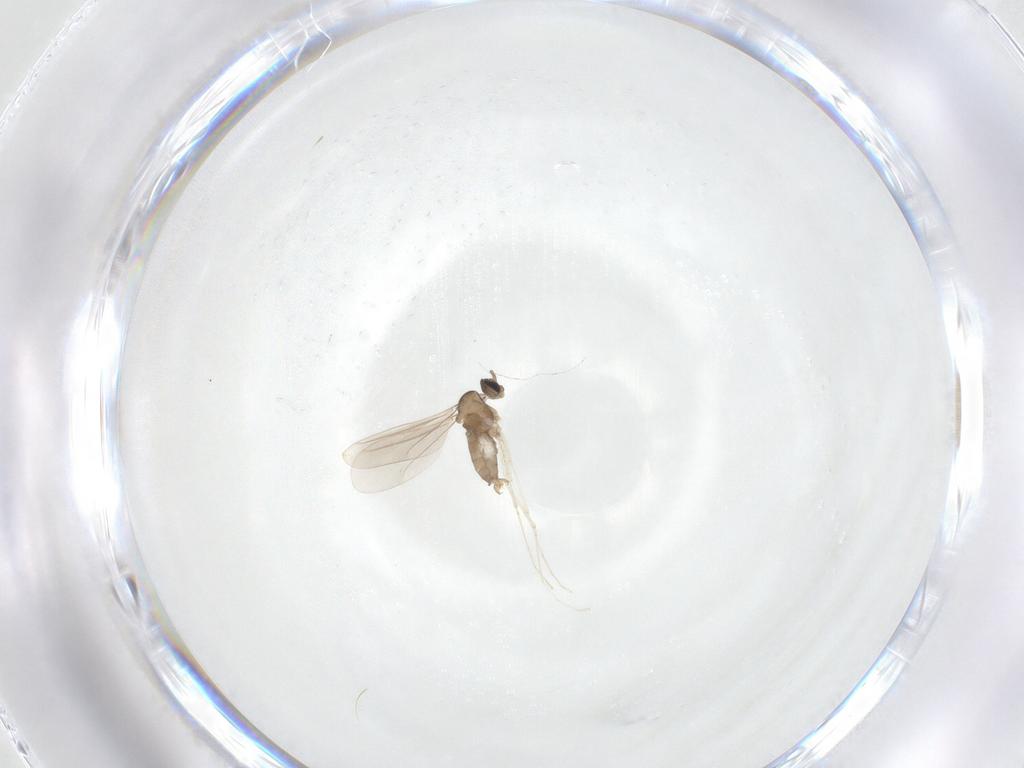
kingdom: Animalia
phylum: Arthropoda
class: Insecta
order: Diptera
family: Cecidomyiidae
